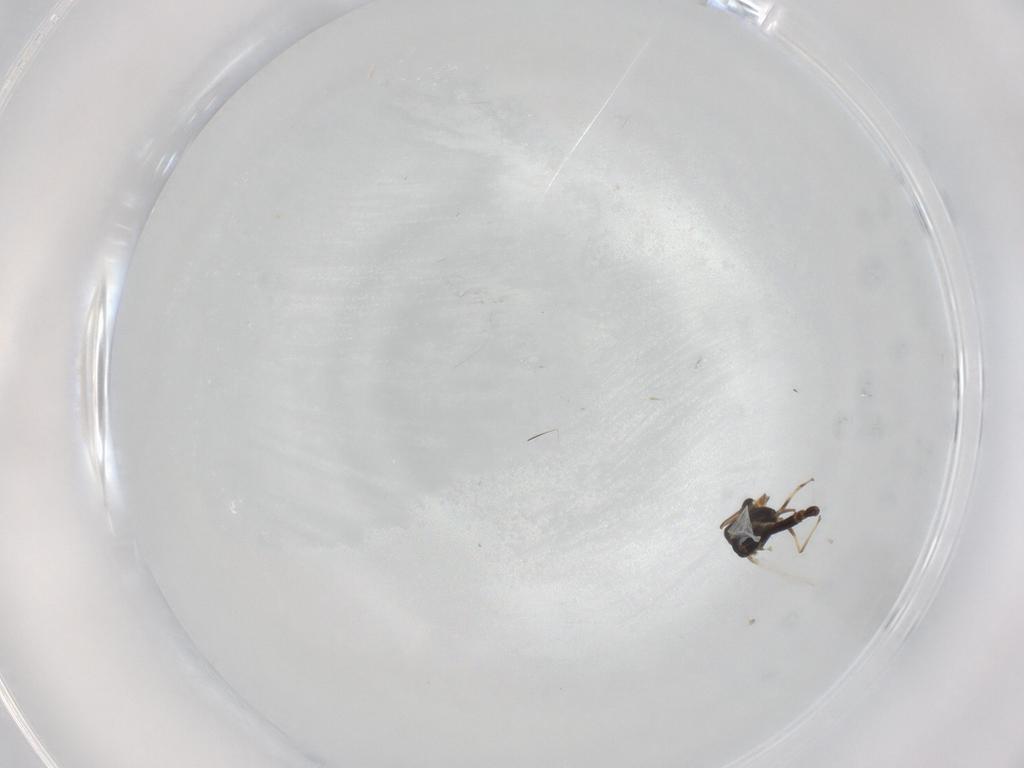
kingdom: Animalia
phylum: Arthropoda
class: Insecta
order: Diptera
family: Chironomidae
